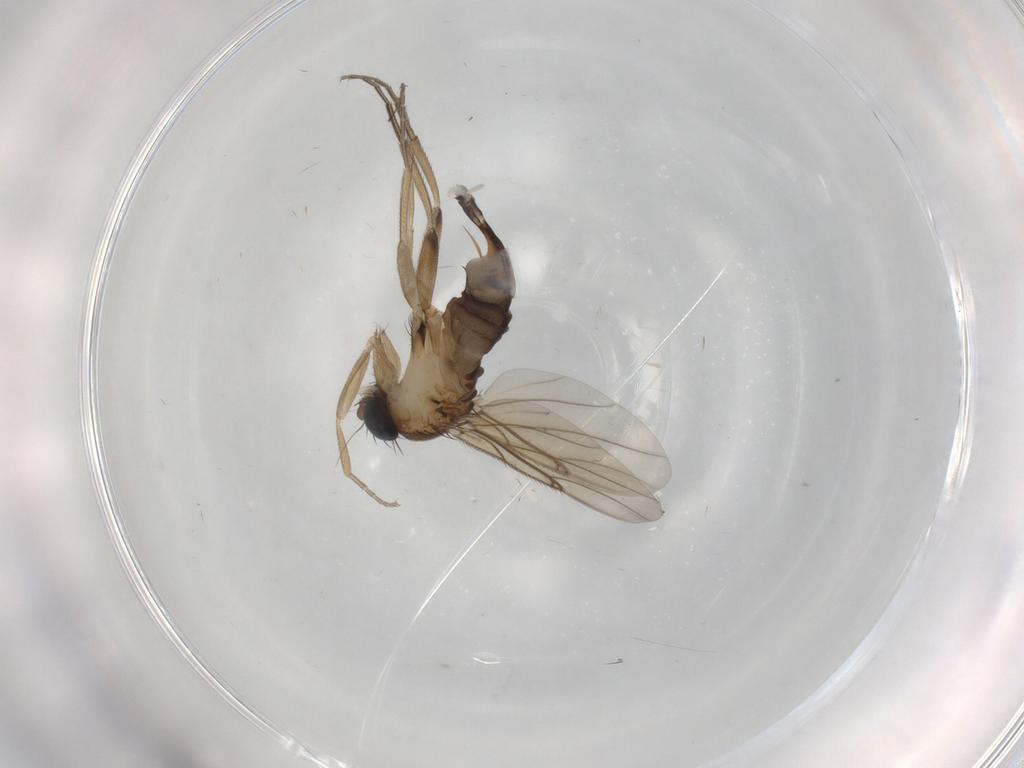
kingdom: Animalia
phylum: Arthropoda
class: Insecta
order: Diptera
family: Phoridae
